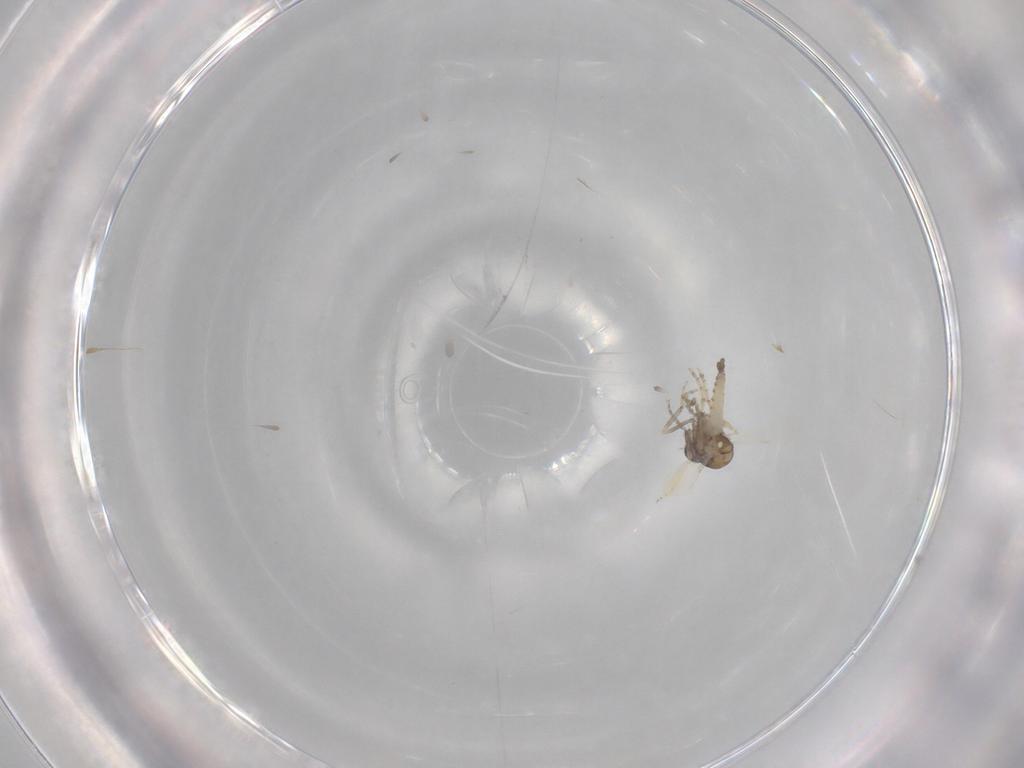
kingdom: Animalia
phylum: Arthropoda
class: Insecta
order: Diptera
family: Ceratopogonidae
